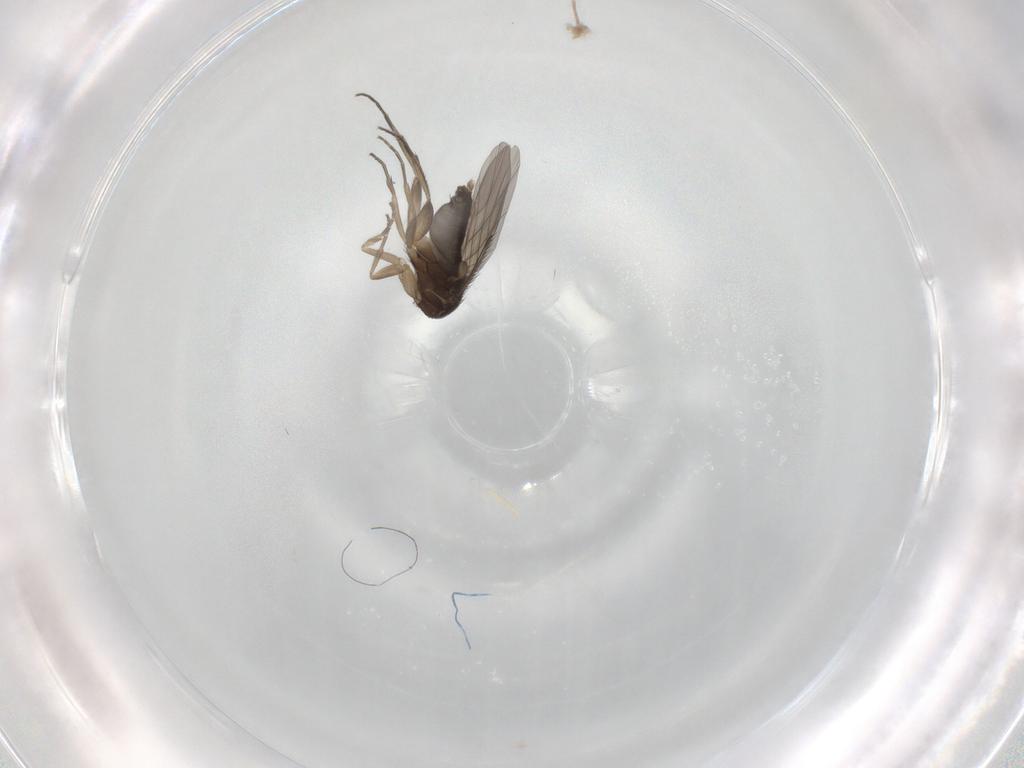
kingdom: Animalia
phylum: Arthropoda
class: Insecta
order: Diptera
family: Phoridae
